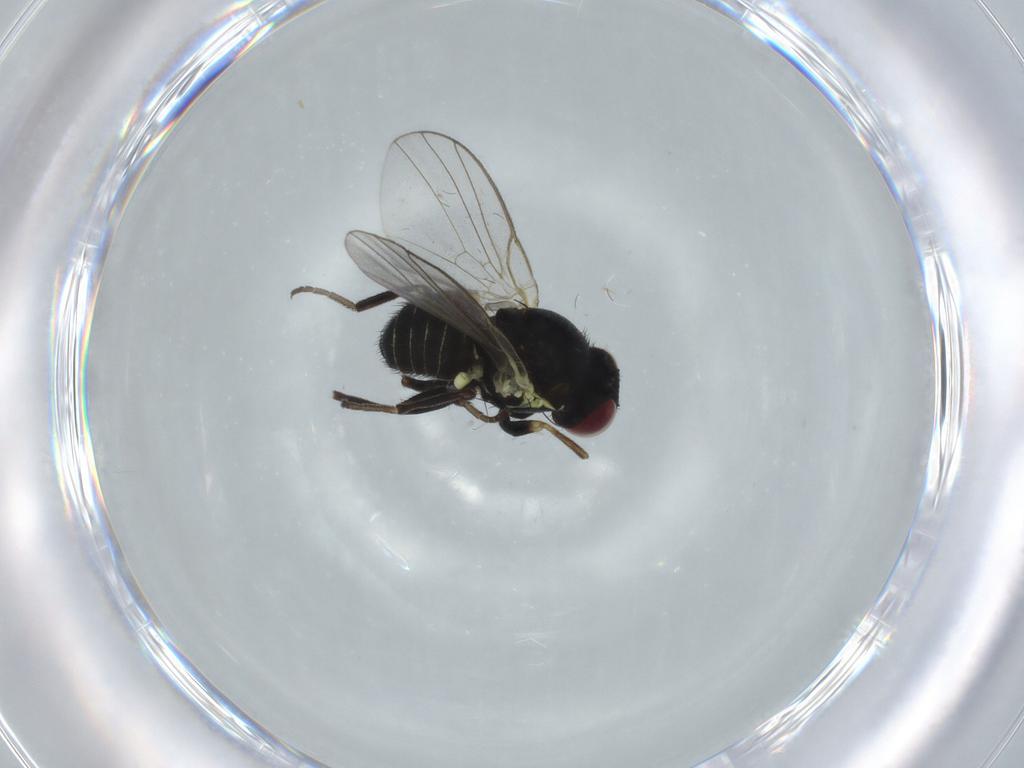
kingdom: Animalia
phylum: Arthropoda
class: Insecta
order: Diptera
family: Agromyzidae
